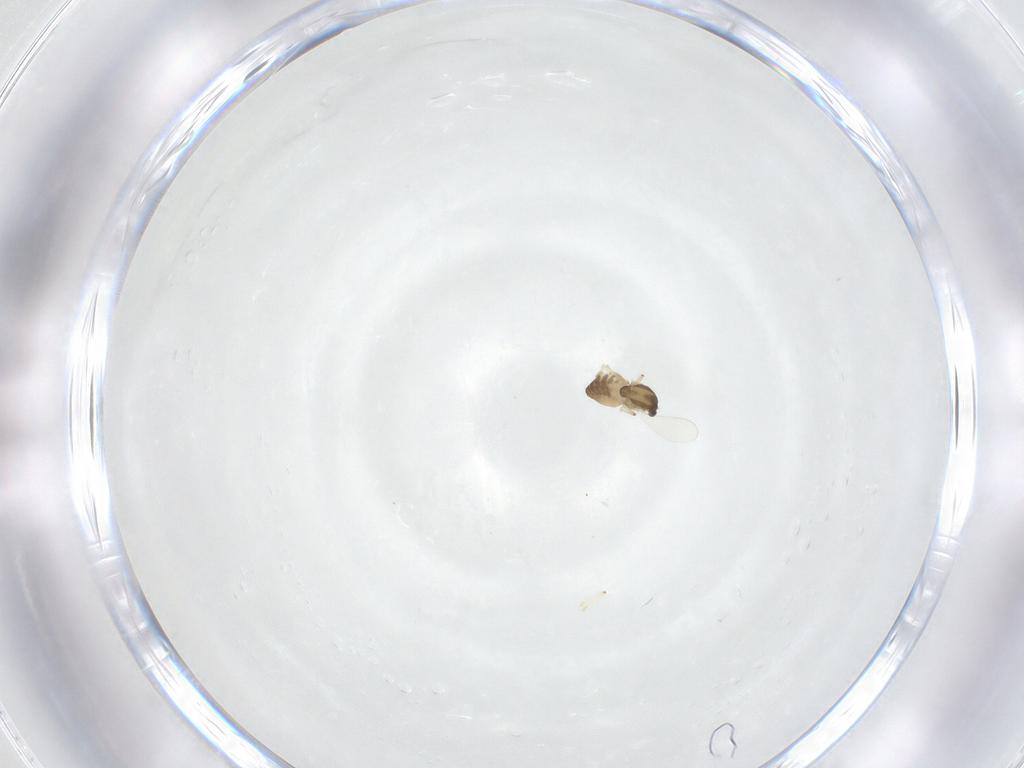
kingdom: Animalia
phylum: Arthropoda
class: Insecta
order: Diptera
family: Chironomidae
